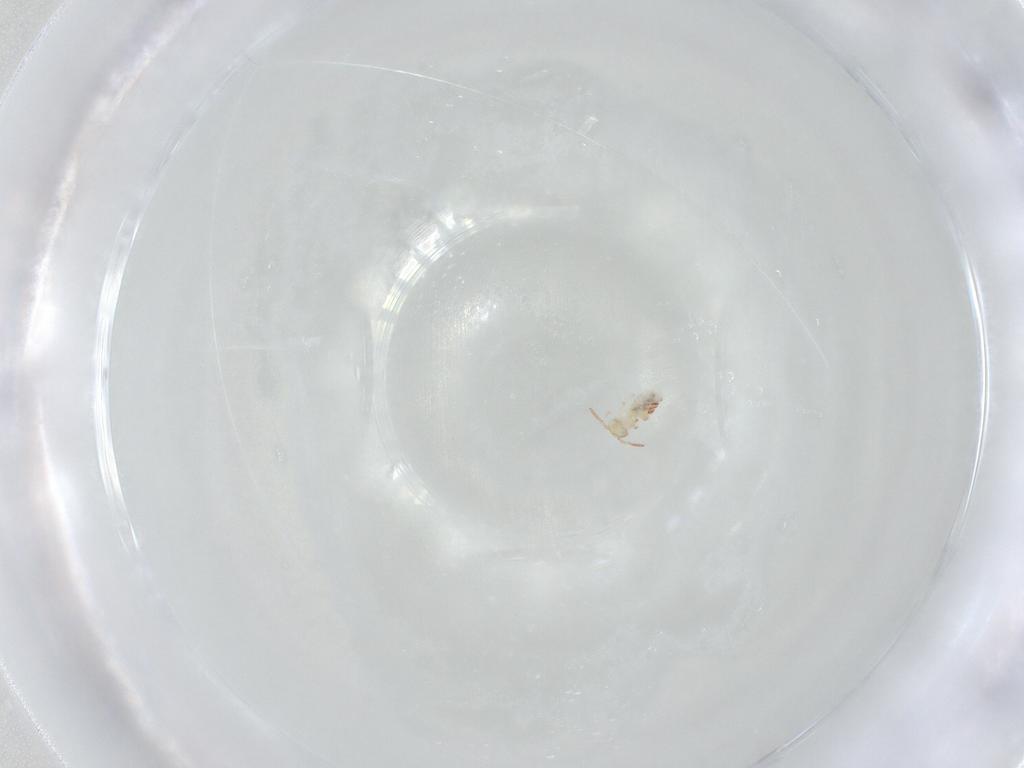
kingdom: Animalia
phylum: Arthropoda
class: Collembola
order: Symphypleona
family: Bourletiellidae
